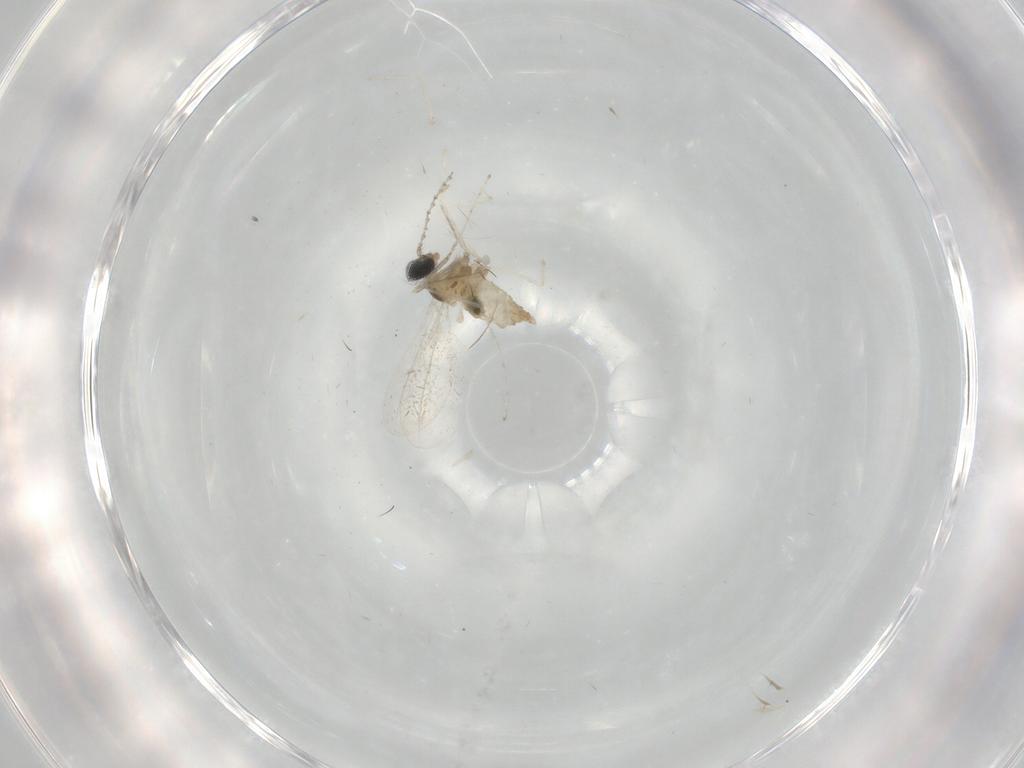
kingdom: Animalia
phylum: Arthropoda
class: Insecta
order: Diptera
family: Cecidomyiidae
